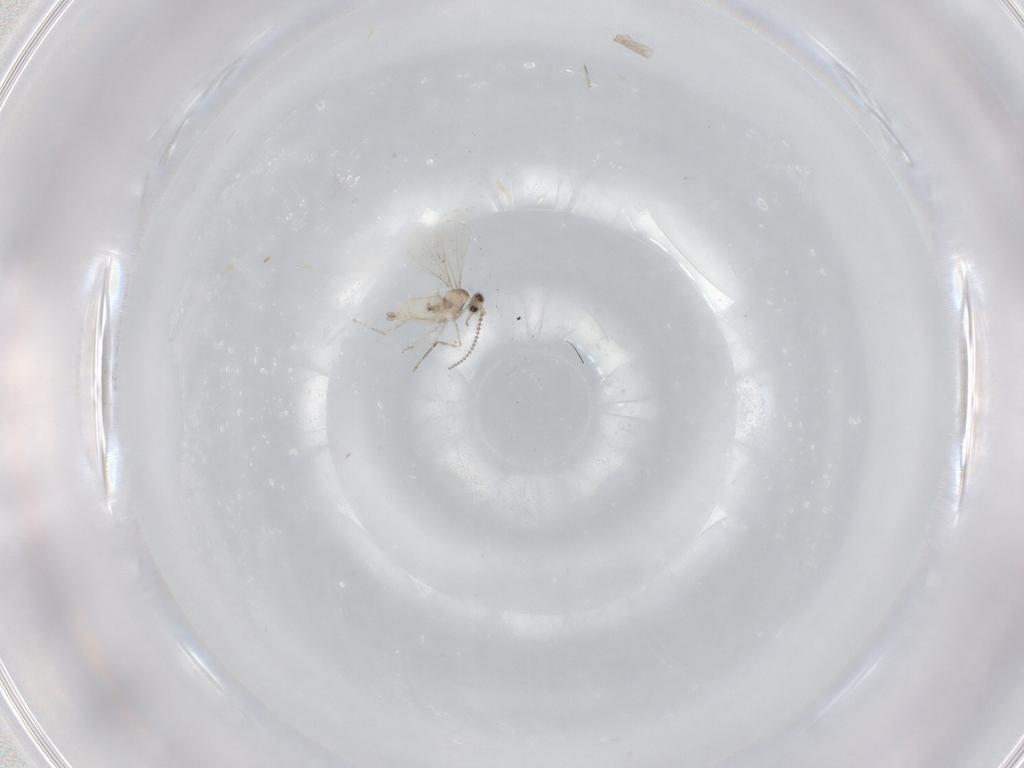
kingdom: Animalia
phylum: Arthropoda
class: Insecta
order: Diptera
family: Cecidomyiidae
